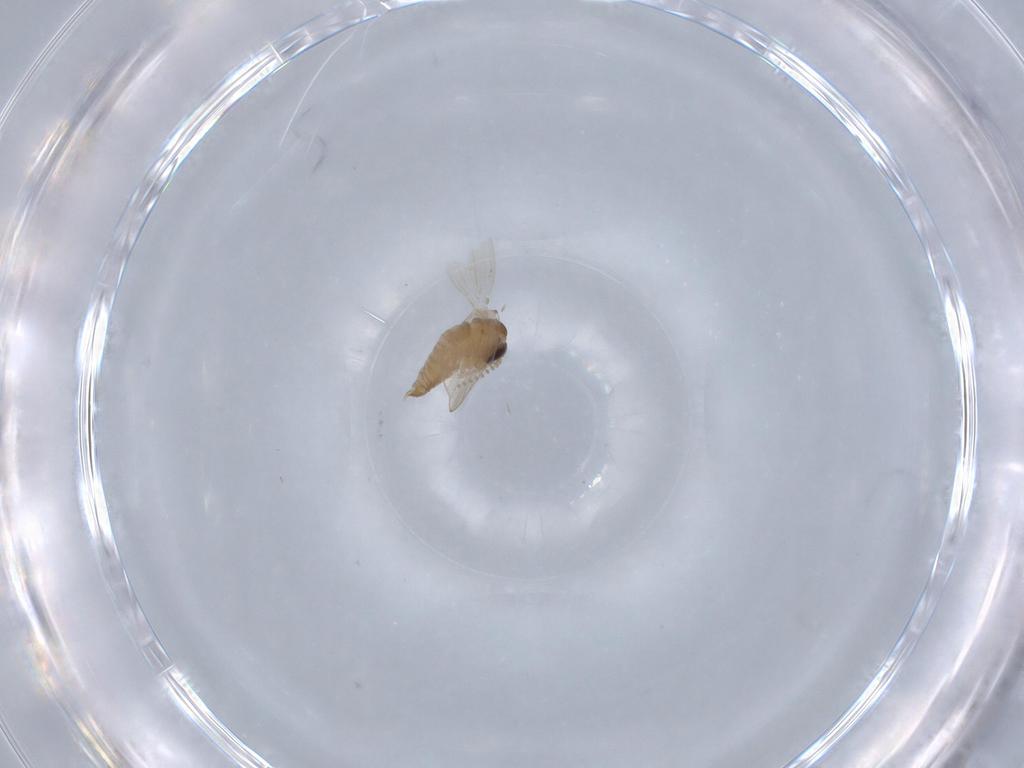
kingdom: Animalia
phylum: Arthropoda
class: Insecta
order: Diptera
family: Psychodidae
